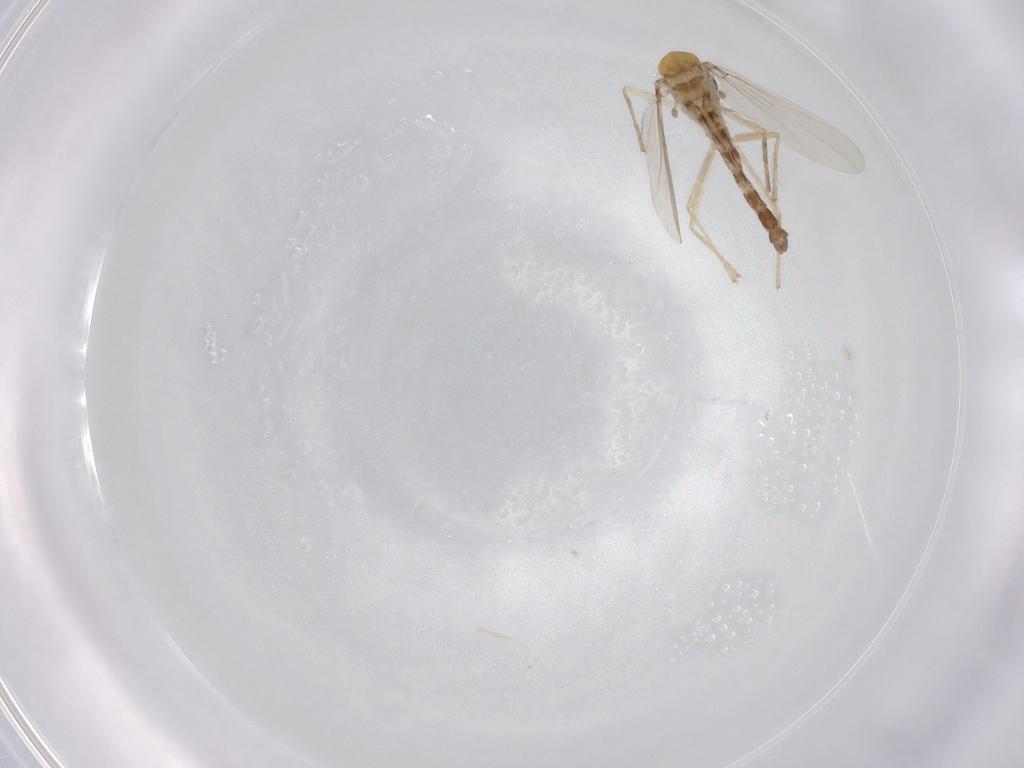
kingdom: Animalia
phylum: Arthropoda
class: Insecta
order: Diptera
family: Chironomidae
